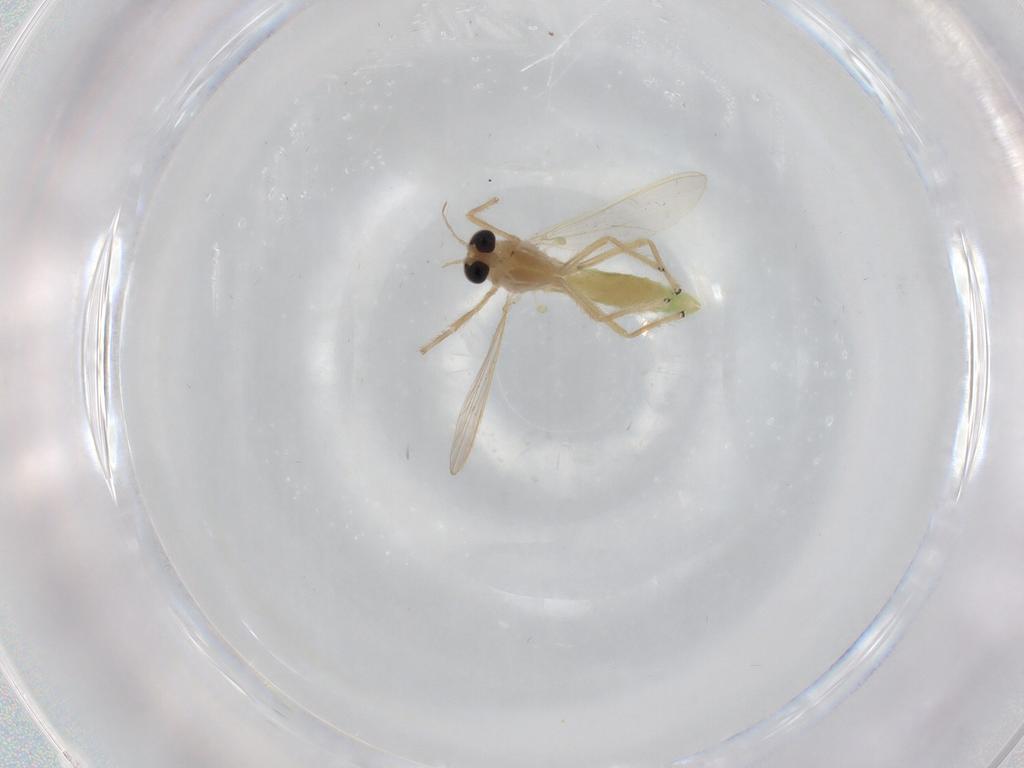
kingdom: Animalia
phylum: Arthropoda
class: Insecta
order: Diptera
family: Chironomidae
